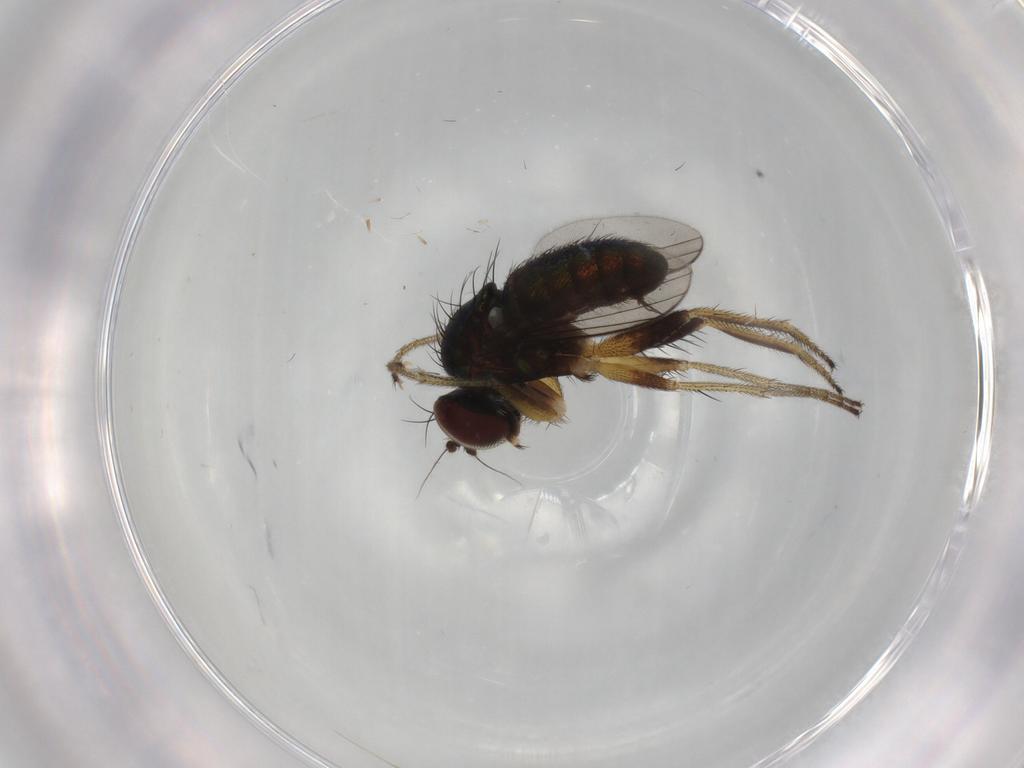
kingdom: Animalia
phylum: Arthropoda
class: Insecta
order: Diptera
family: Dolichopodidae
